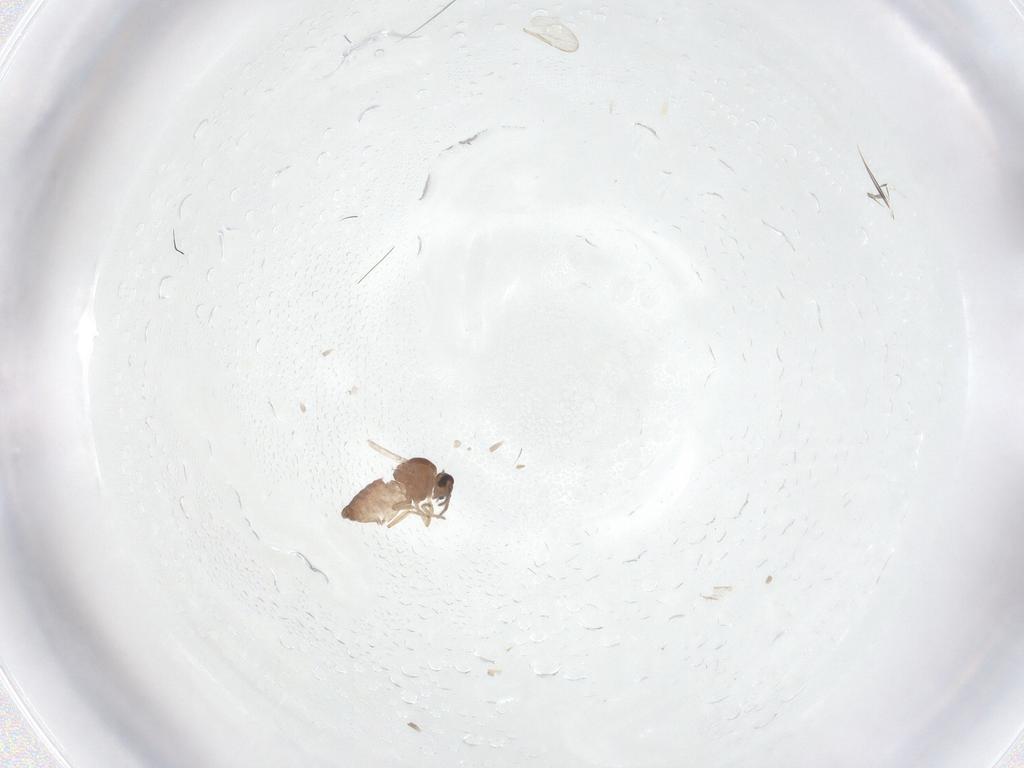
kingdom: Animalia
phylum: Arthropoda
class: Insecta
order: Diptera
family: Ceratopogonidae
